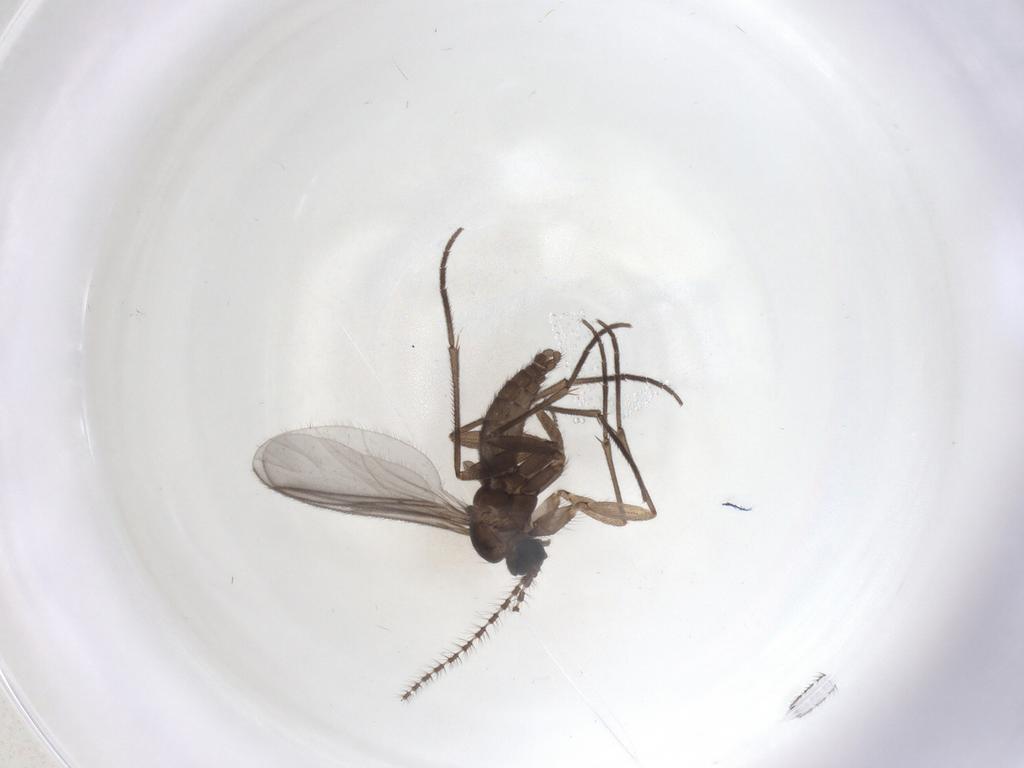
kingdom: Animalia
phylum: Arthropoda
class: Insecta
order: Diptera
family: Sciaridae
